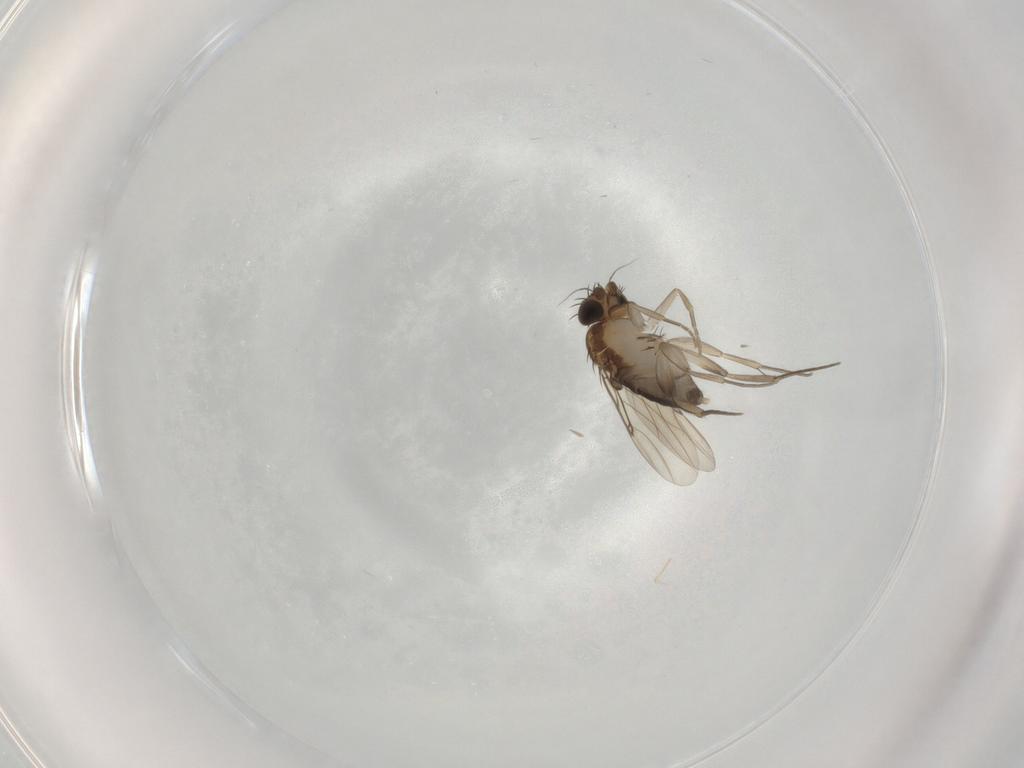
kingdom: Animalia
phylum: Arthropoda
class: Insecta
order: Diptera
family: Phoridae
